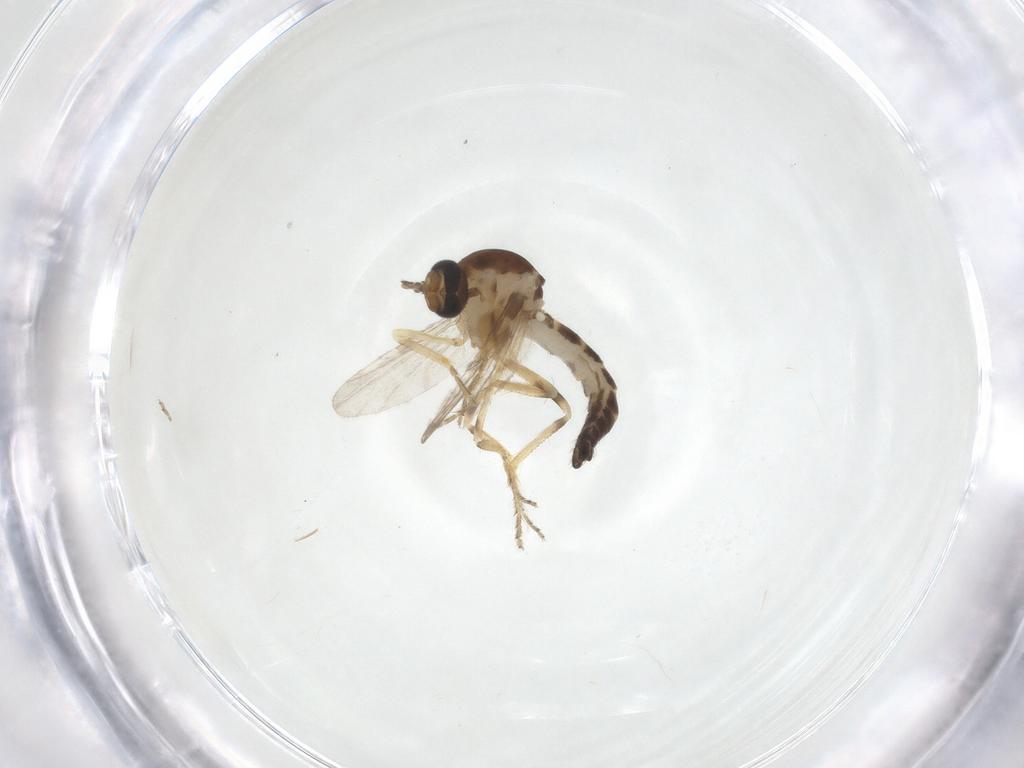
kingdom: Animalia
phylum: Arthropoda
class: Insecta
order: Diptera
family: Ceratopogonidae
